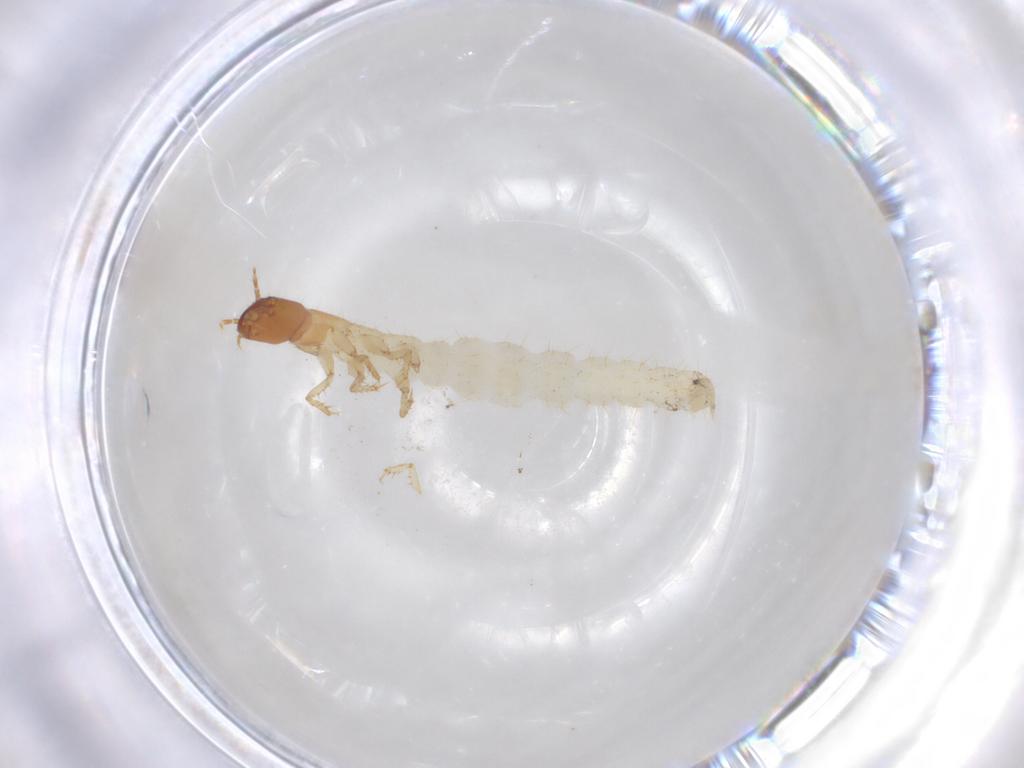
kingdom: Animalia
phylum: Arthropoda
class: Insecta
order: Coleoptera
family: Staphylinidae
